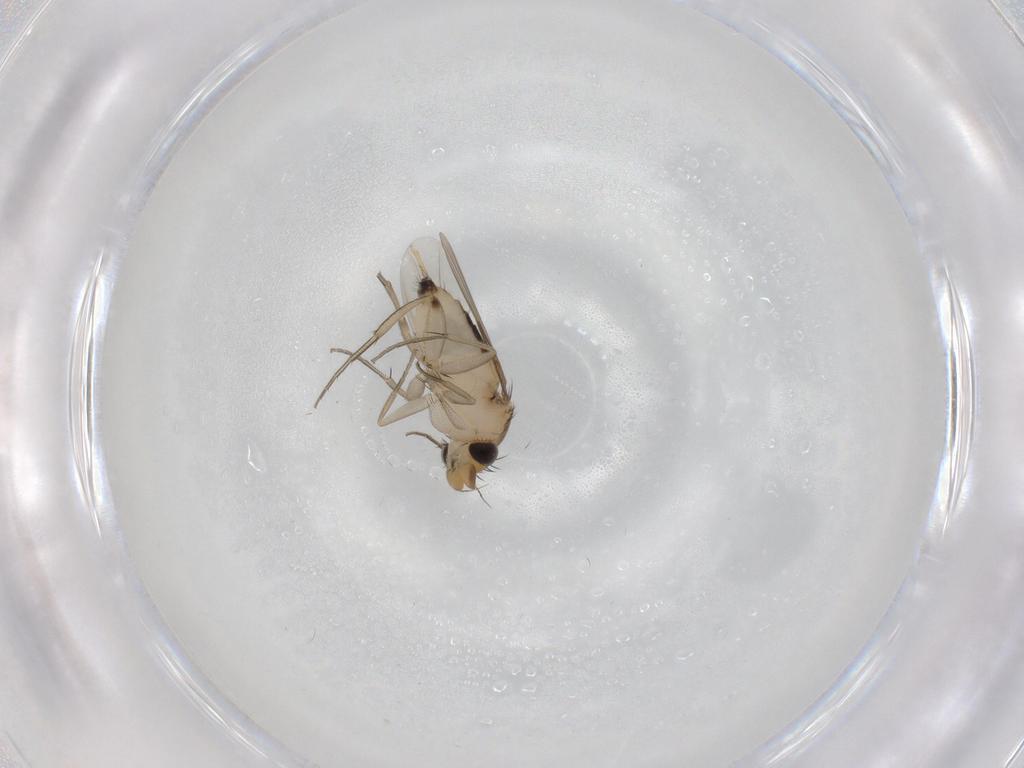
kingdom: Animalia
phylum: Arthropoda
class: Insecta
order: Diptera
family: Phoridae
